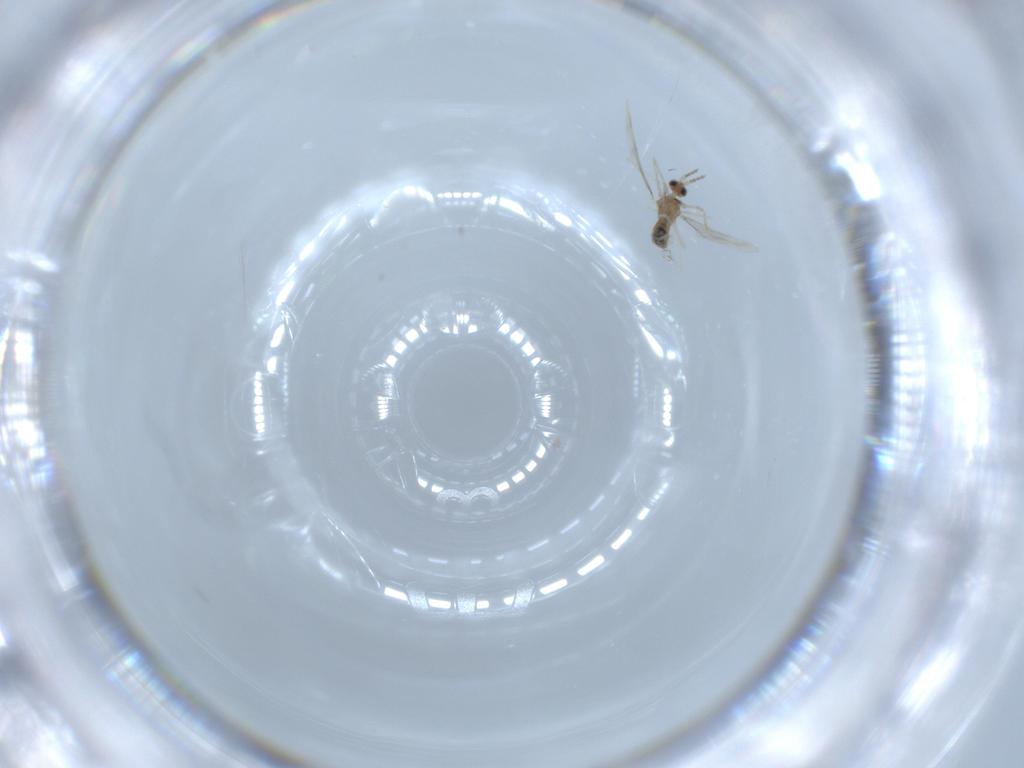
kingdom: Animalia
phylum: Arthropoda
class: Insecta
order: Diptera
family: Cecidomyiidae
